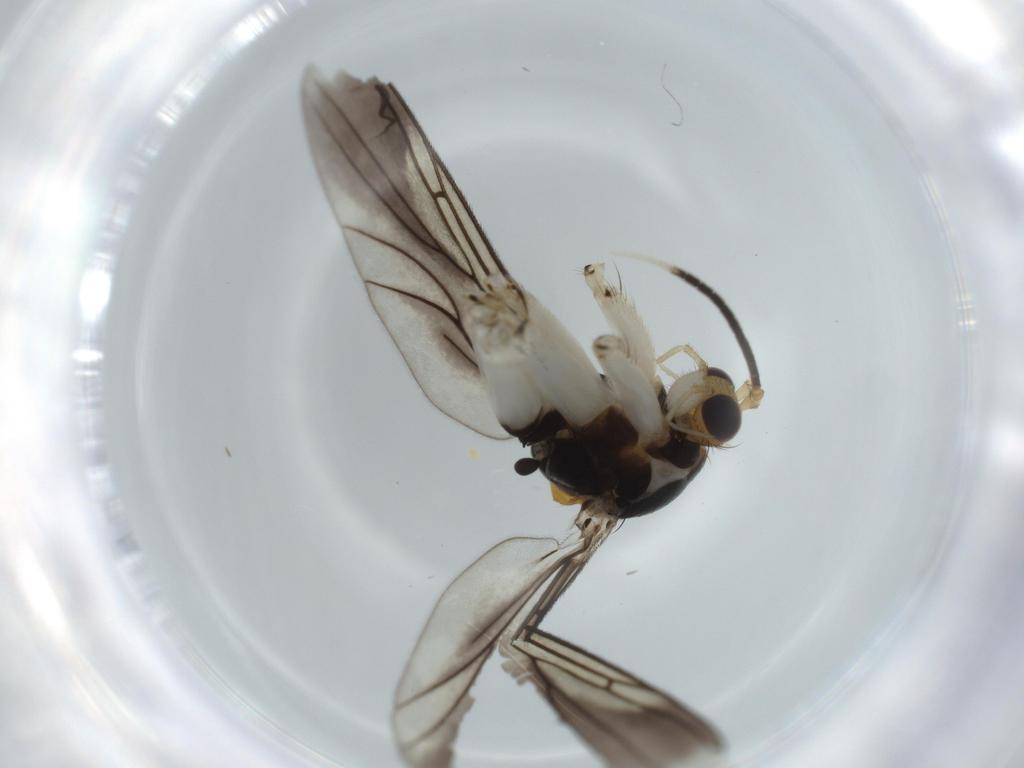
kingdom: Animalia
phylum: Arthropoda
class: Insecta
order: Diptera
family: Mycetophilidae
